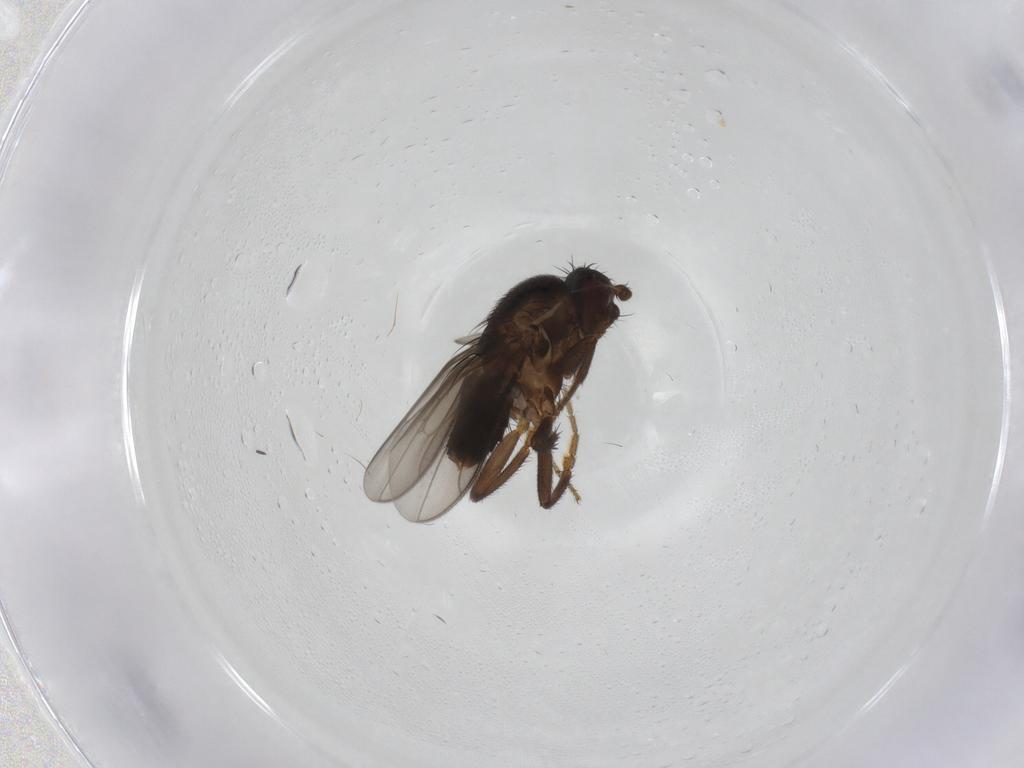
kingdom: Animalia
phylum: Arthropoda
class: Insecta
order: Diptera
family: Sphaeroceridae
